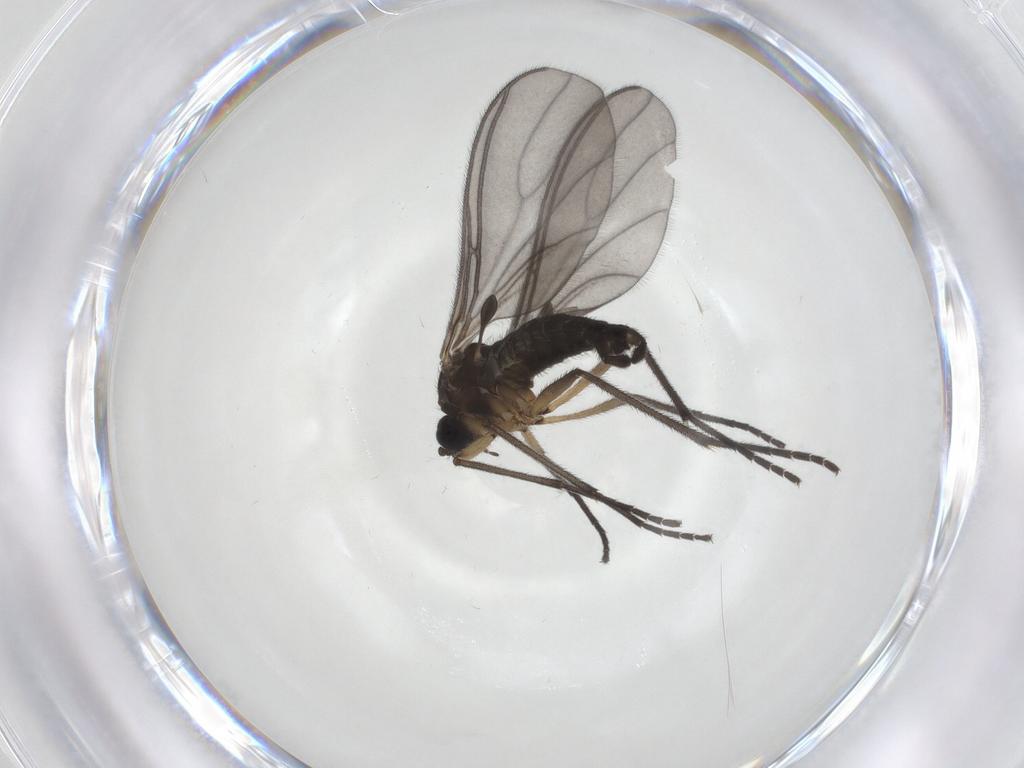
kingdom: Animalia
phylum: Arthropoda
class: Insecta
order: Diptera
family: Sciaridae
